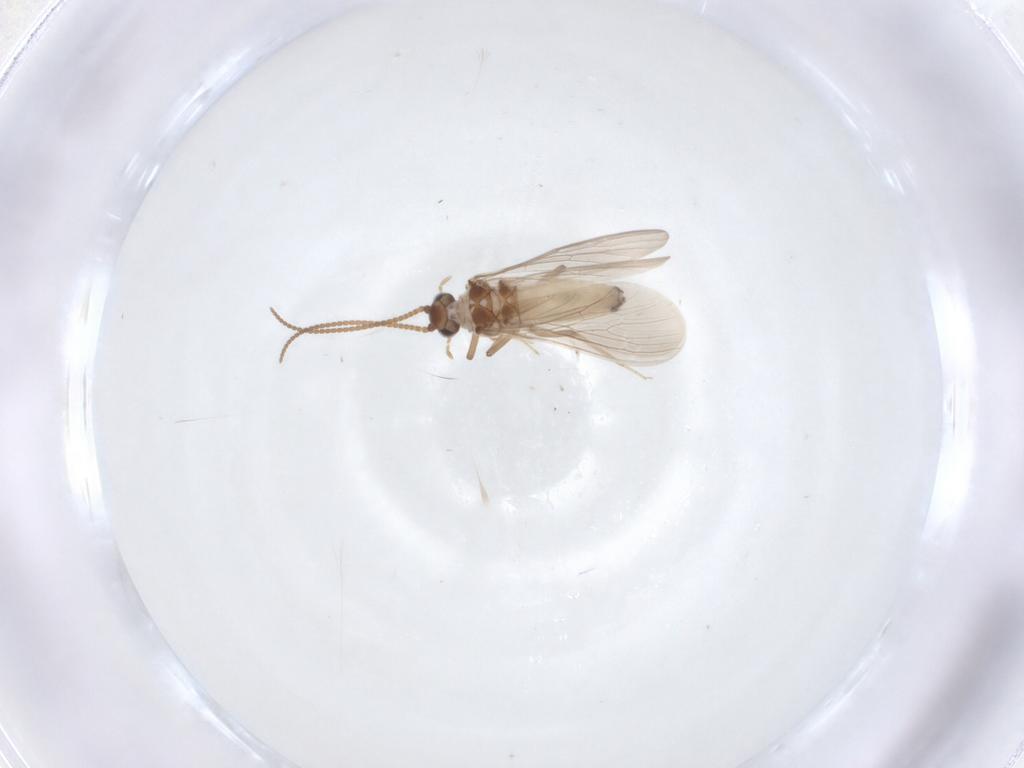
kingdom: Animalia
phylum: Arthropoda
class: Insecta
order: Neuroptera
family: Coniopterygidae
